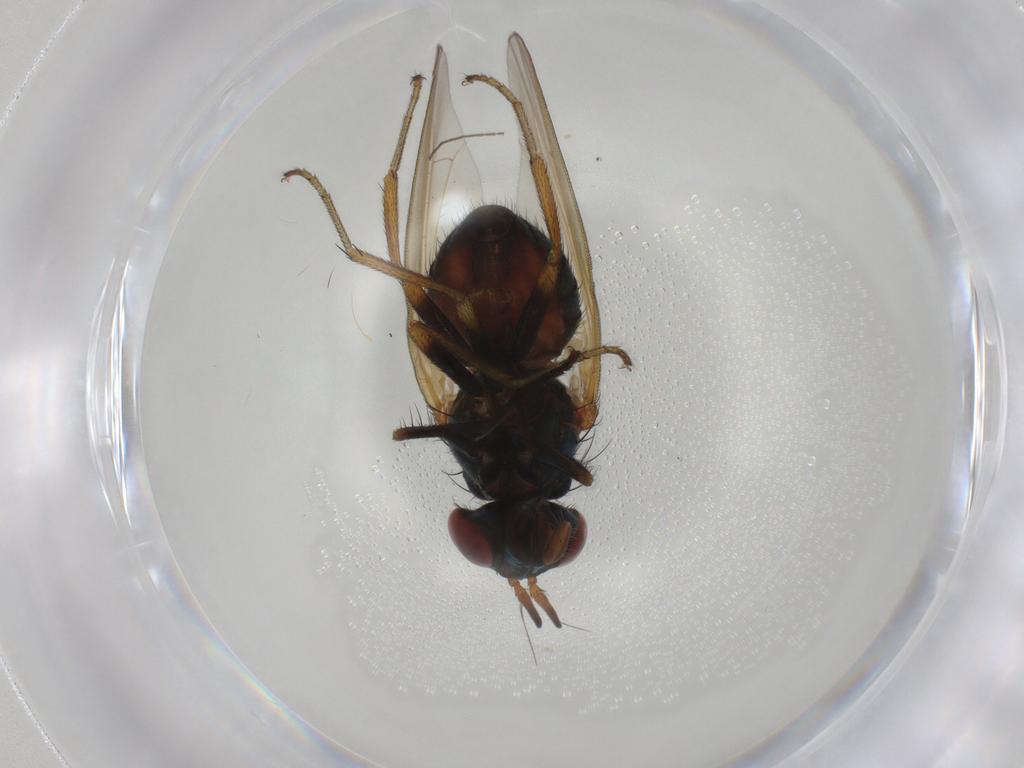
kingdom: Animalia
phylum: Arthropoda
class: Insecta
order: Diptera
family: Lauxaniidae
